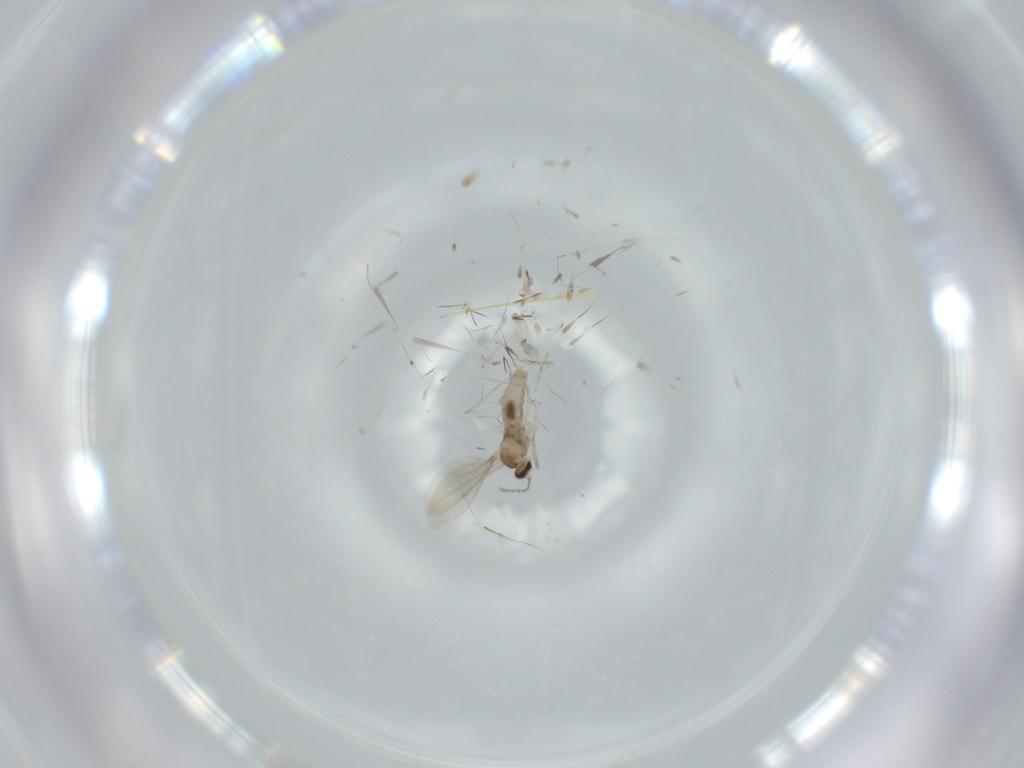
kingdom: Animalia
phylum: Arthropoda
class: Insecta
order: Diptera
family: Cecidomyiidae
